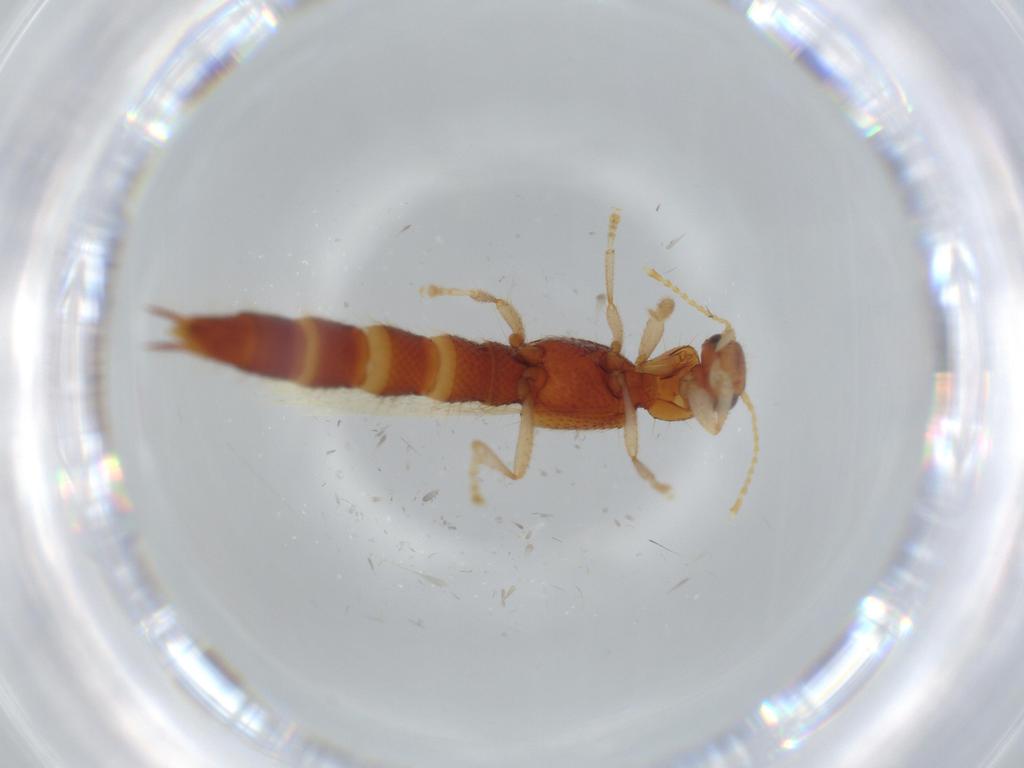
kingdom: Animalia
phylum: Arthropoda
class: Insecta
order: Coleoptera
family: Staphylinidae
